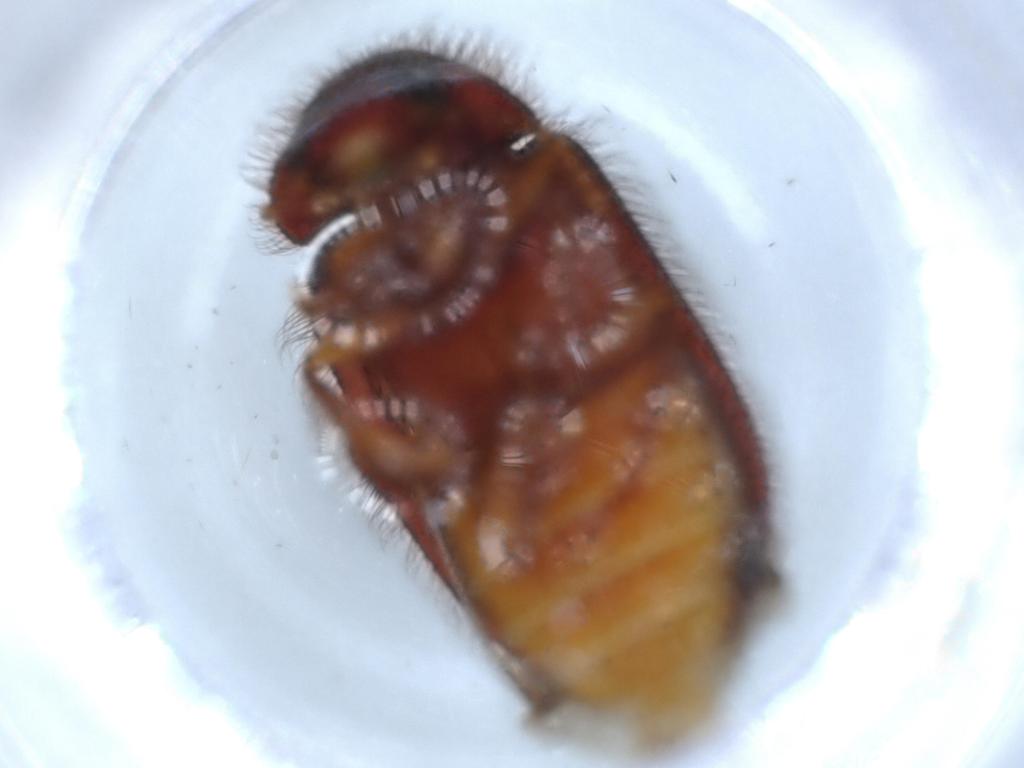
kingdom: Animalia
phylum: Arthropoda
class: Insecta
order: Coleoptera
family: Rhadalidae
